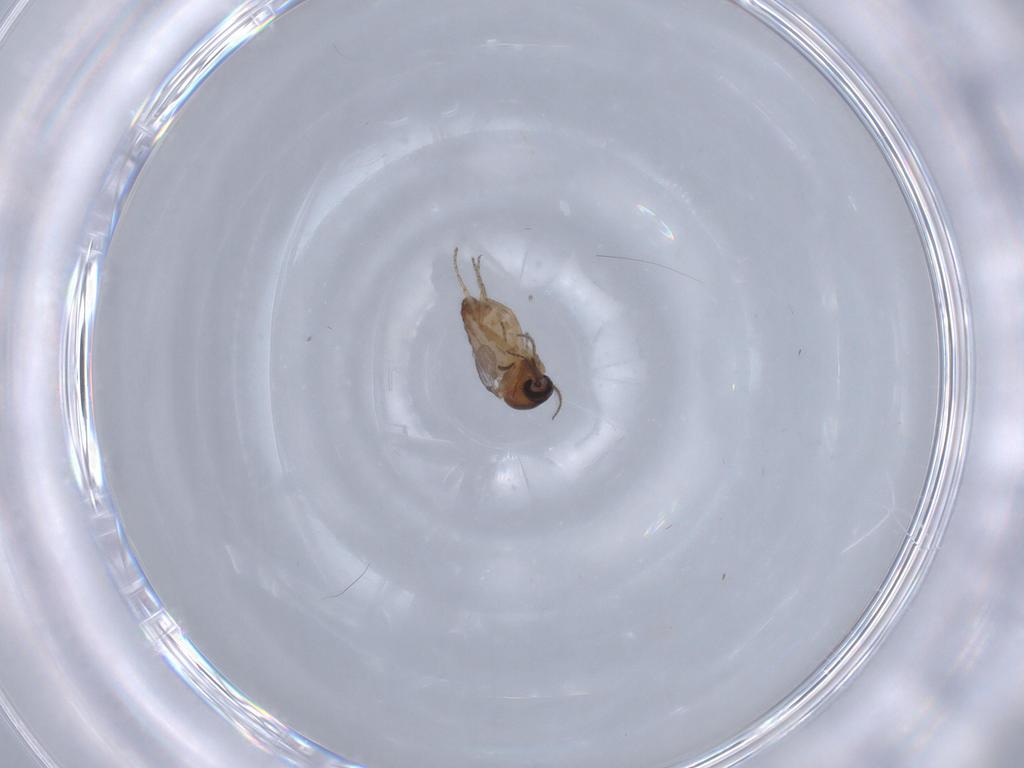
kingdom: Animalia
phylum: Arthropoda
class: Insecta
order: Diptera
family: Ceratopogonidae
